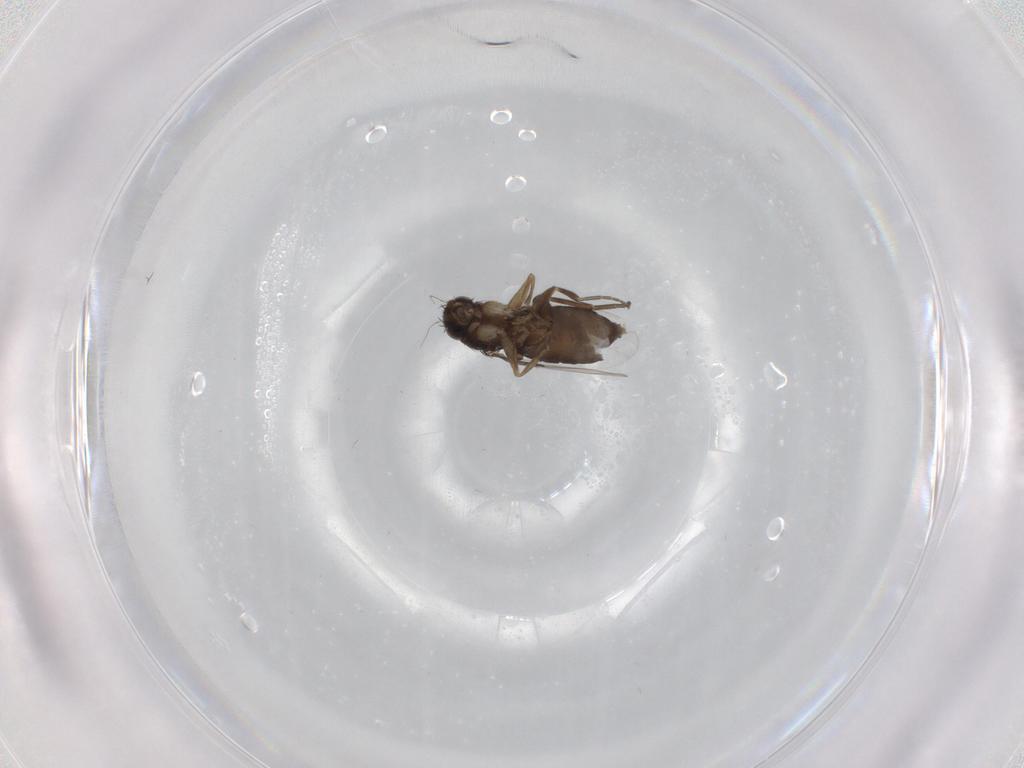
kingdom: Animalia
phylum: Arthropoda
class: Insecta
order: Diptera
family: Phoridae
